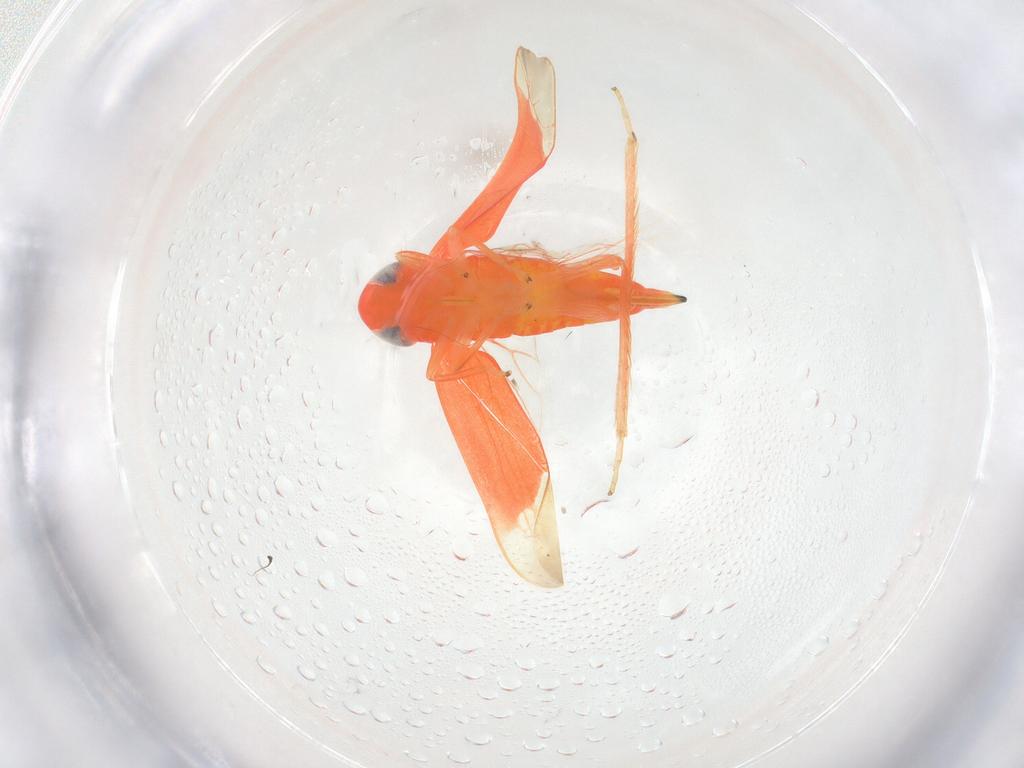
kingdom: Animalia
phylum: Arthropoda
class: Insecta
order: Hemiptera
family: Cicadellidae
